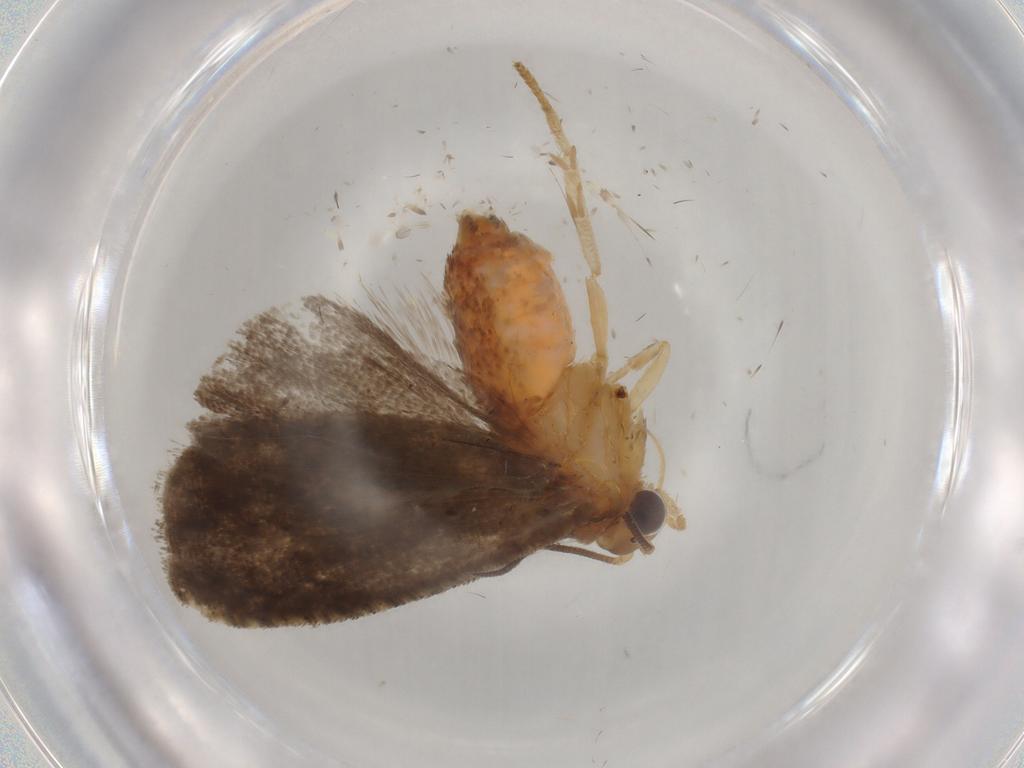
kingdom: Animalia
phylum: Arthropoda
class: Insecta
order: Lepidoptera
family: Tortricidae
